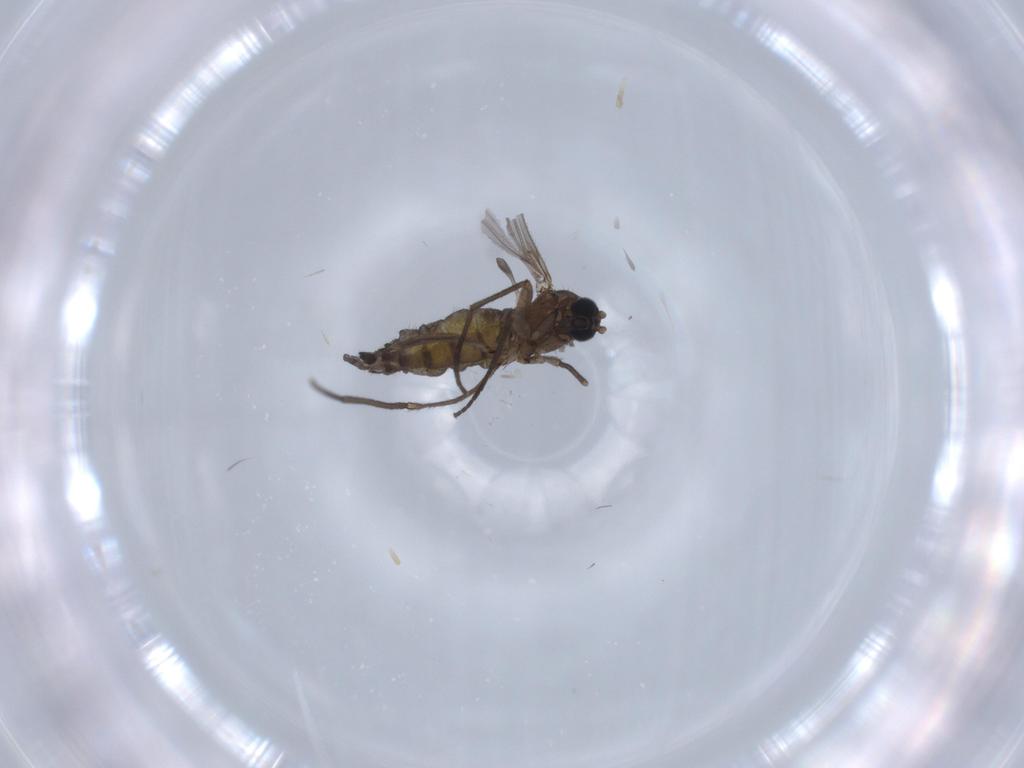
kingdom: Animalia
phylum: Arthropoda
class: Insecta
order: Diptera
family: Sciaridae
